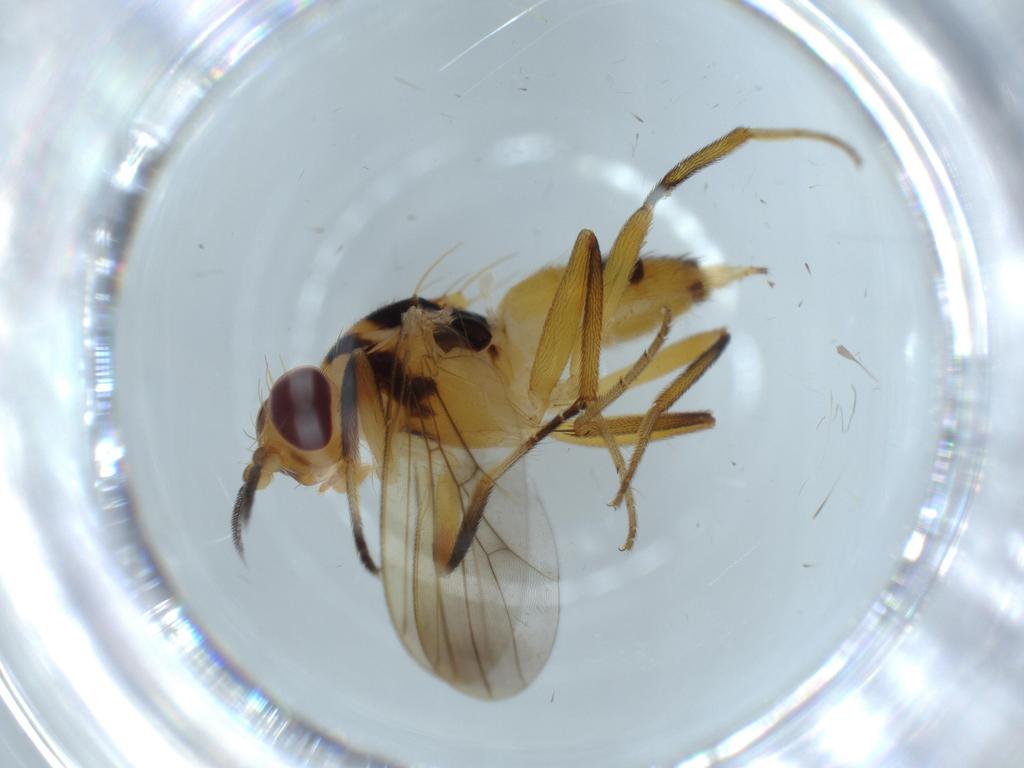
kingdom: Animalia
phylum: Arthropoda
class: Insecta
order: Diptera
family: Clusiidae
